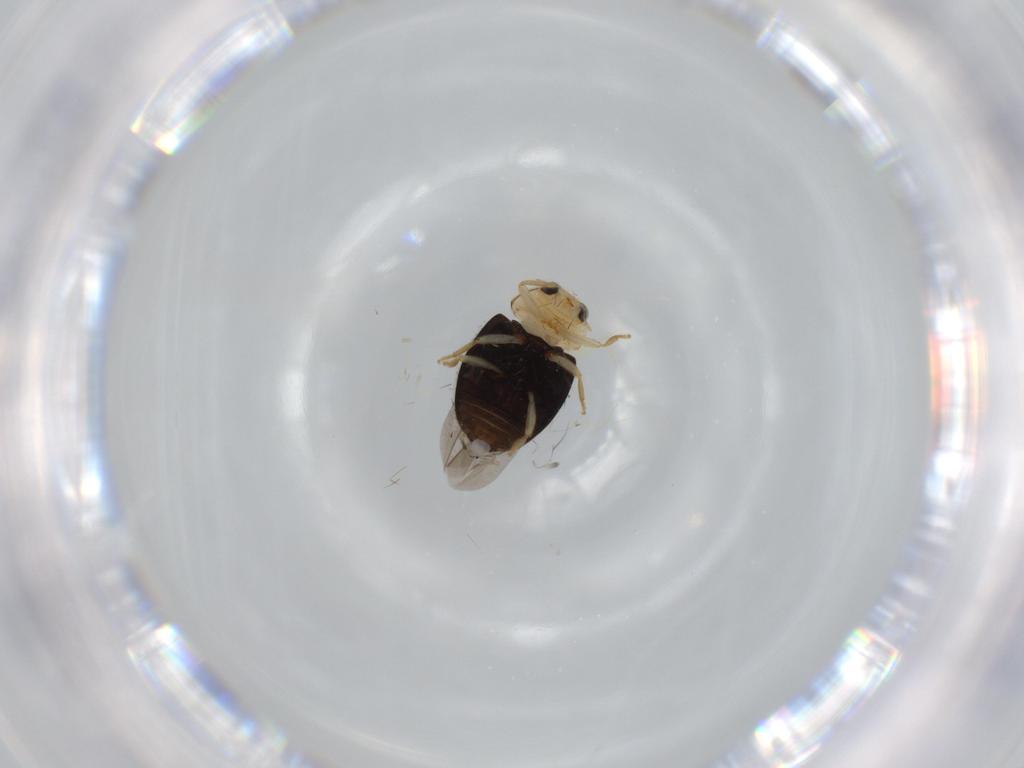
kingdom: Animalia
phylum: Arthropoda
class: Insecta
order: Coleoptera
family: Coccinellidae
